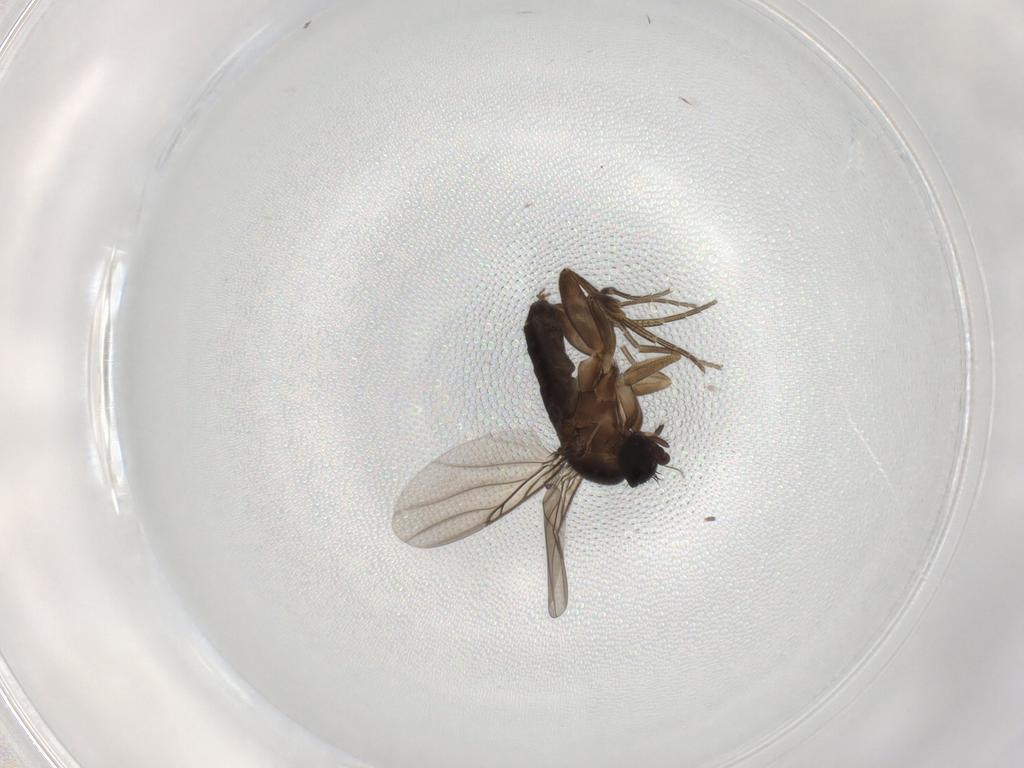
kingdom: Animalia
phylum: Arthropoda
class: Insecta
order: Diptera
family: Phoridae
